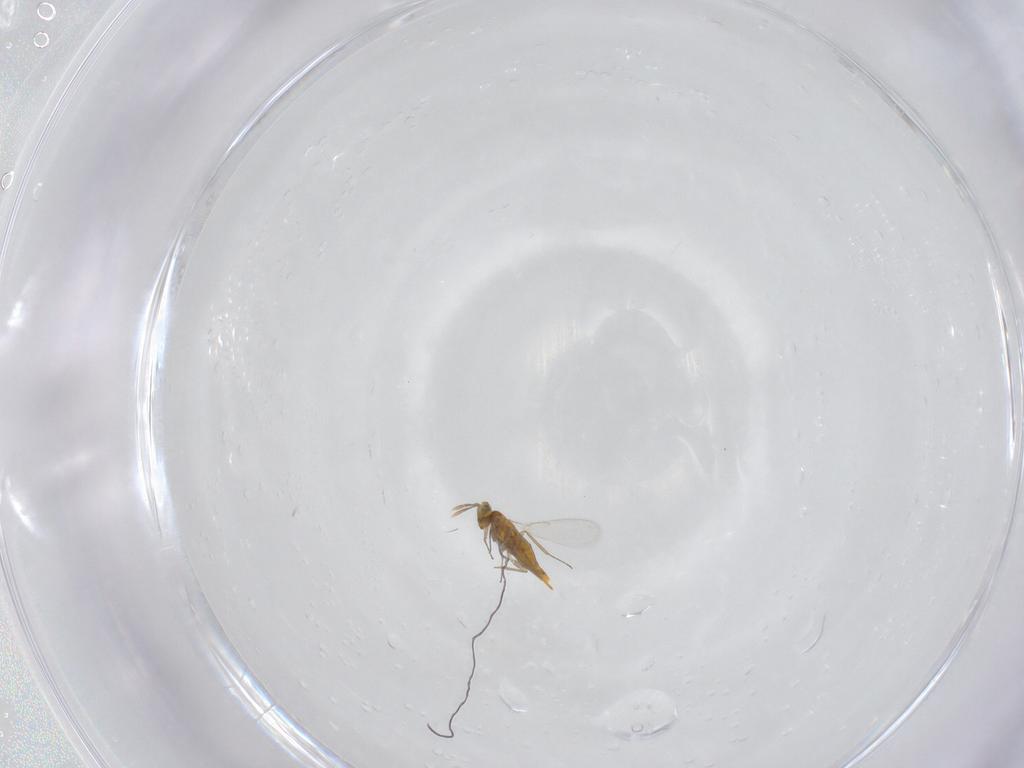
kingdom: Animalia
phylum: Arthropoda
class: Insecta
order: Hymenoptera
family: Aphelinidae
